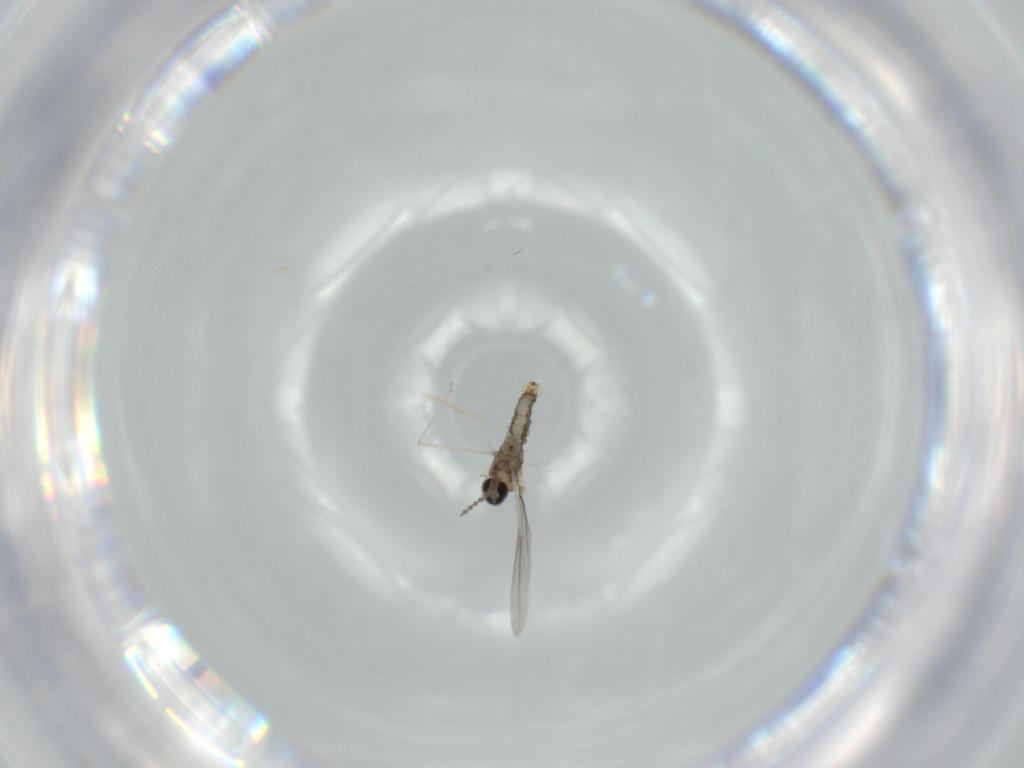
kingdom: Animalia
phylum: Arthropoda
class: Insecta
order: Diptera
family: Cecidomyiidae
